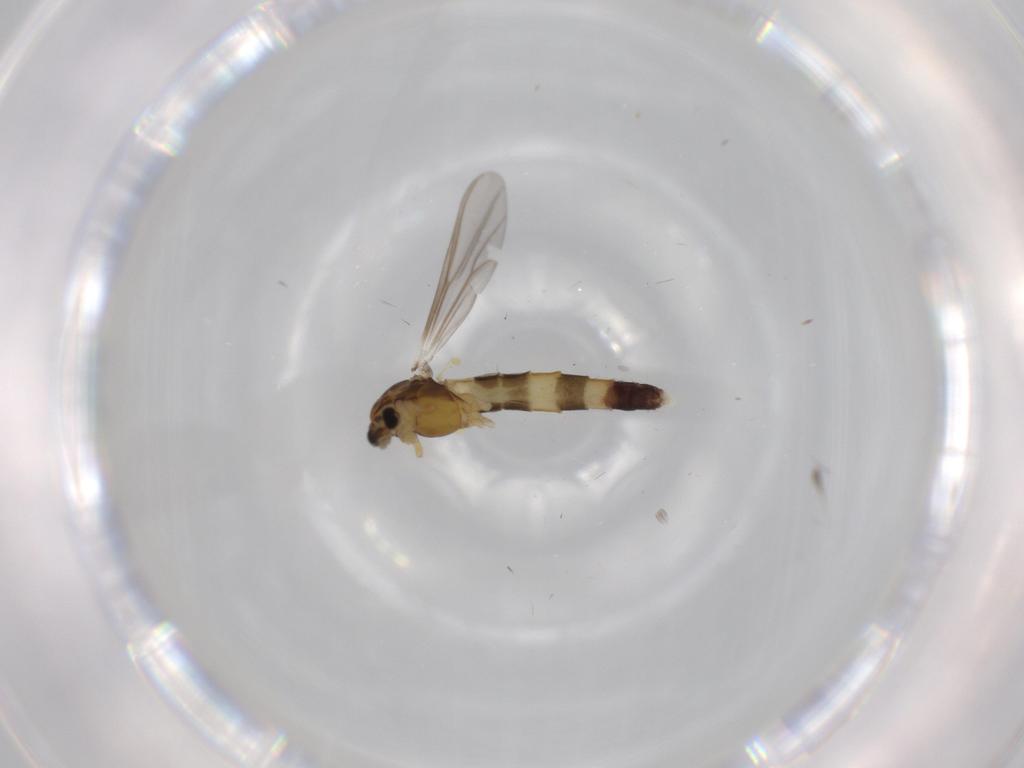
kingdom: Animalia
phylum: Arthropoda
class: Insecta
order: Diptera
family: Chironomidae
